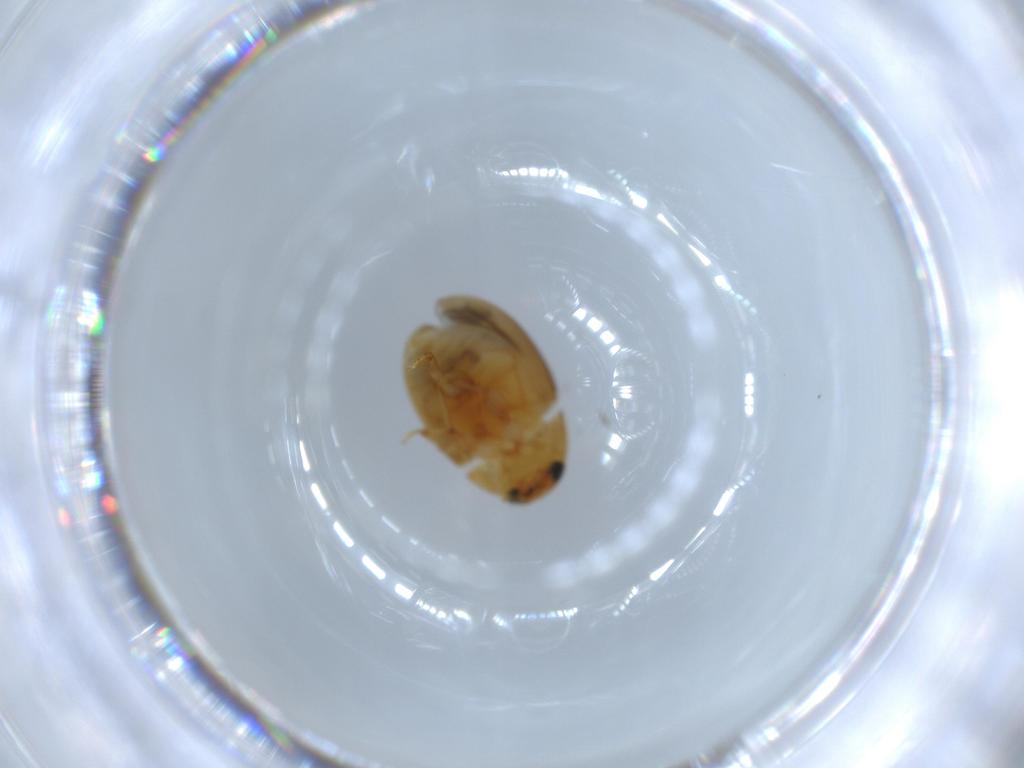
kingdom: Animalia
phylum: Arthropoda
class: Insecta
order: Coleoptera
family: Phalacridae
